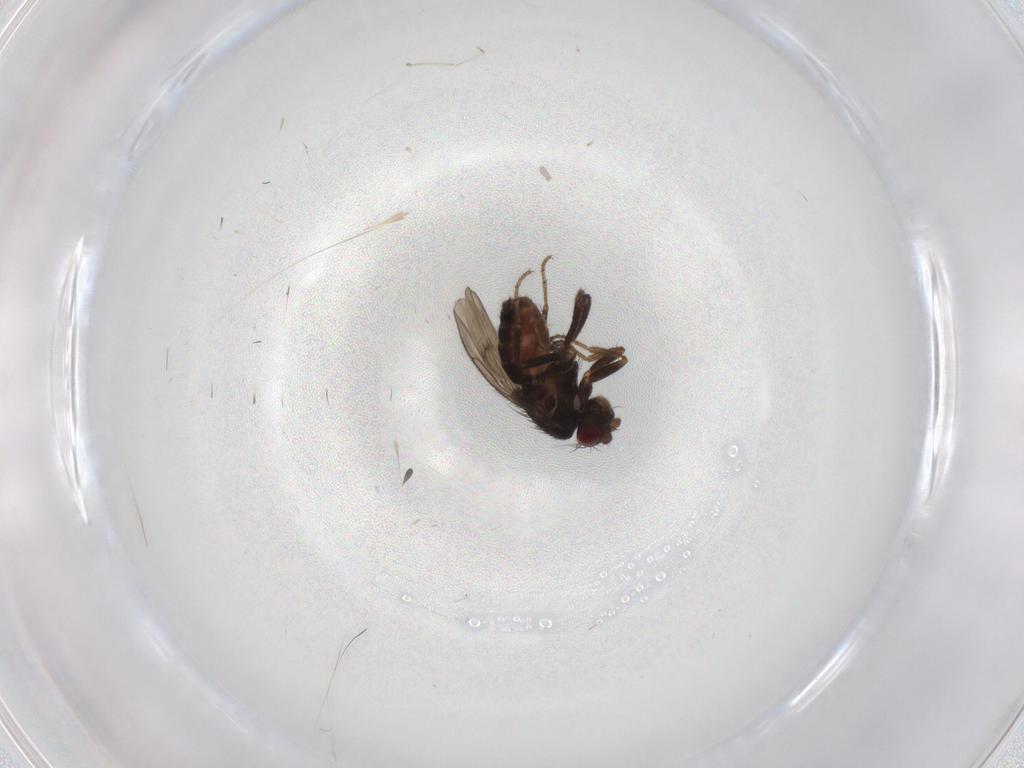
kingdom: Animalia
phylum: Arthropoda
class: Insecta
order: Diptera
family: Sphaeroceridae
